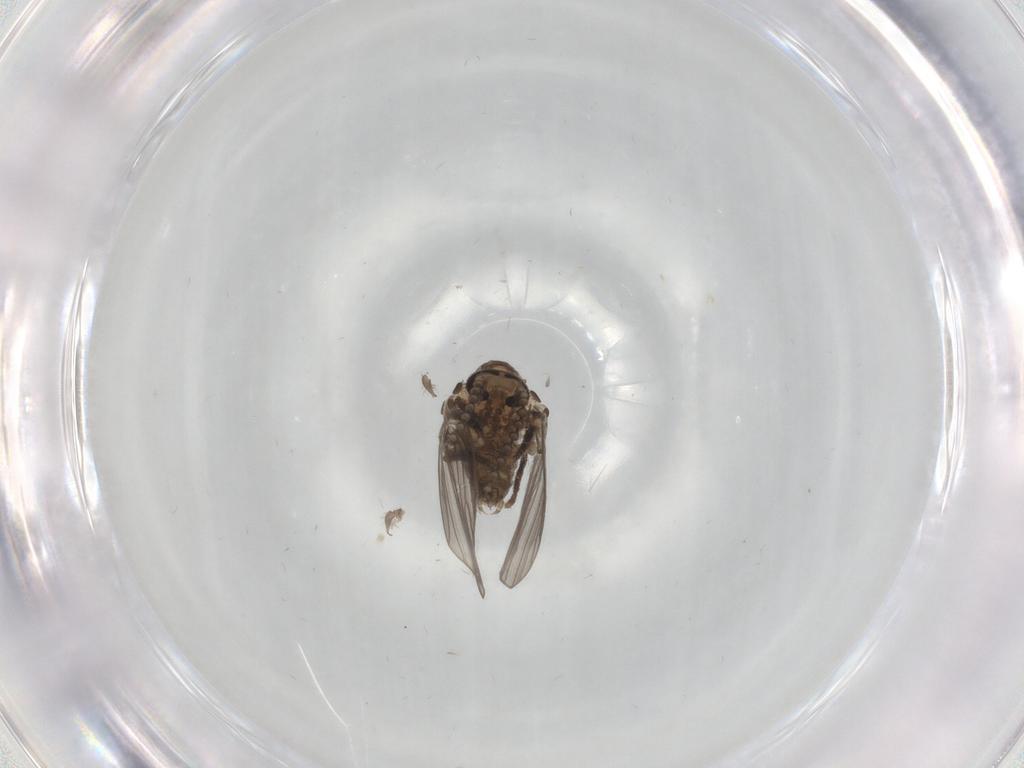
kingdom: Animalia
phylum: Arthropoda
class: Insecta
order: Diptera
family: Psychodidae
